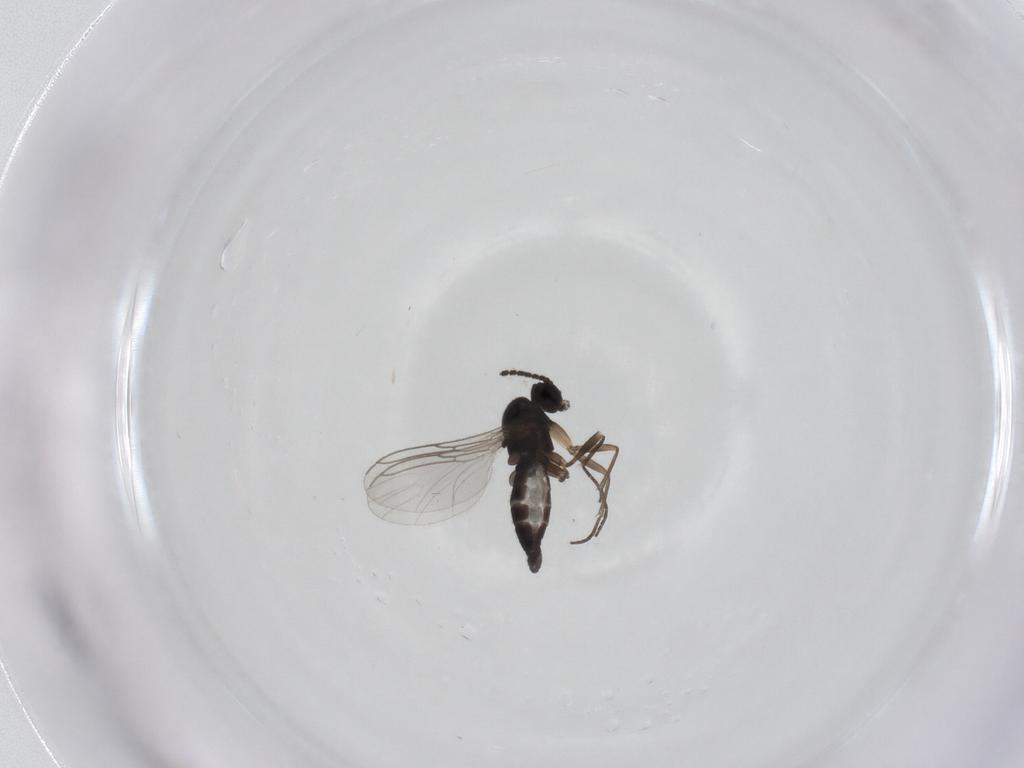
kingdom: Animalia
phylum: Arthropoda
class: Insecta
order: Diptera
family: Sciaridae
